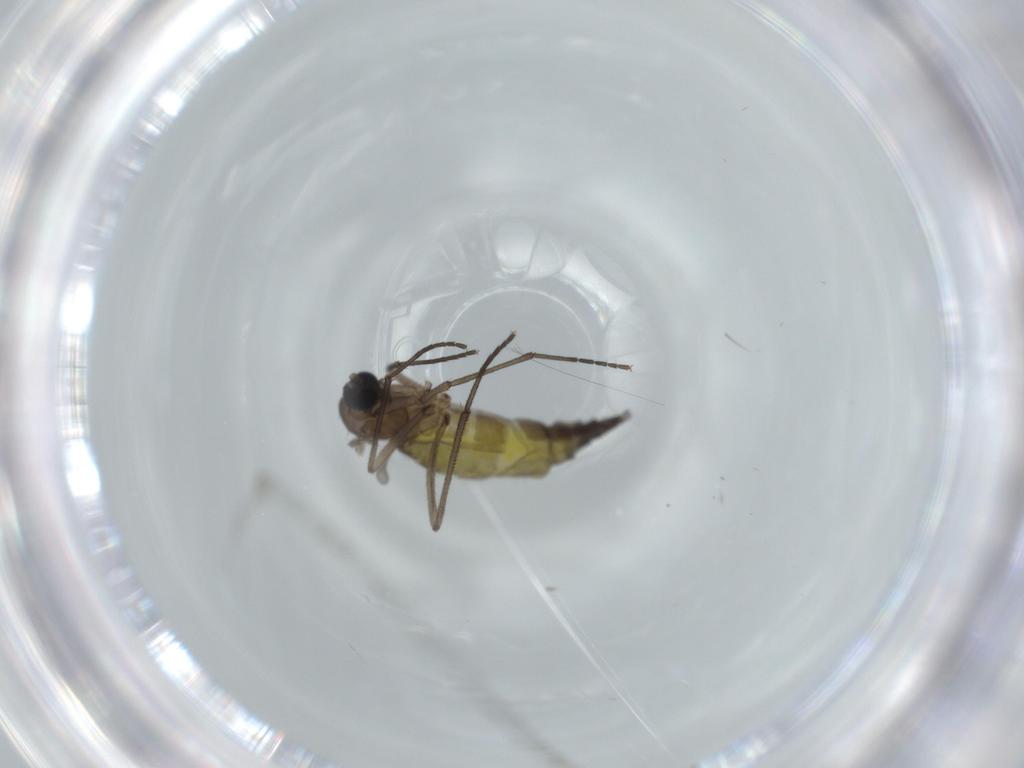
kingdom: Animalia
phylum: Arthropoda
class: Insecta
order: Diptera
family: Sciaridae
